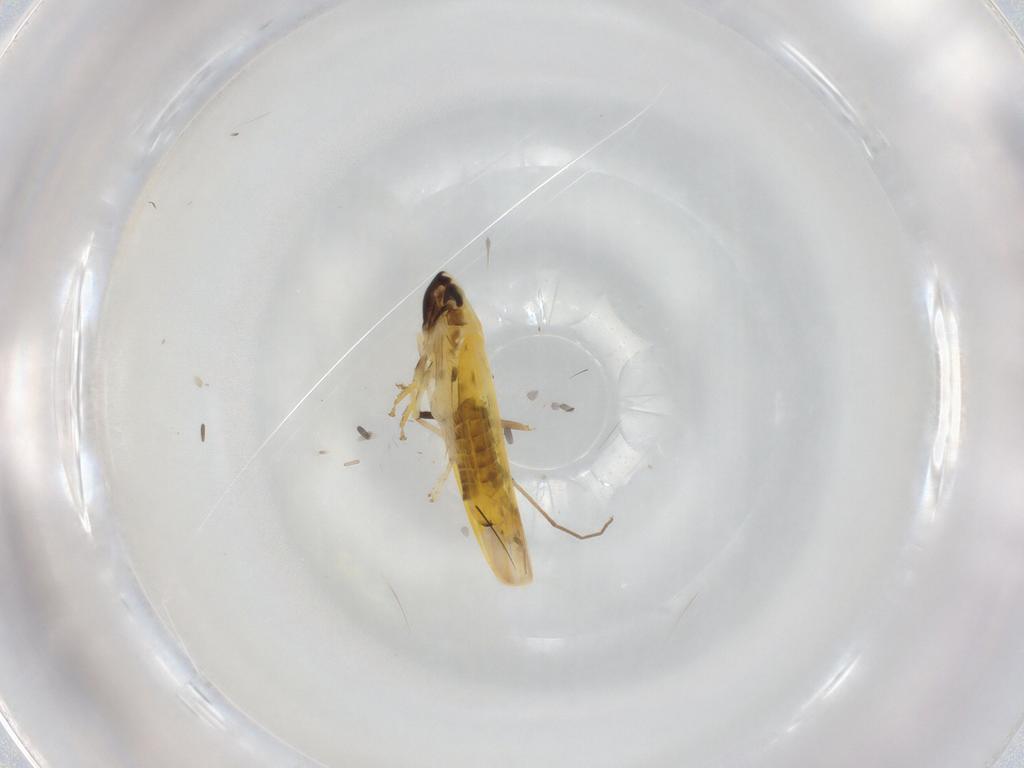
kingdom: Animalia
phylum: Arthropoda
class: Insecta
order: Hemiptera
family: Cicadellidae
